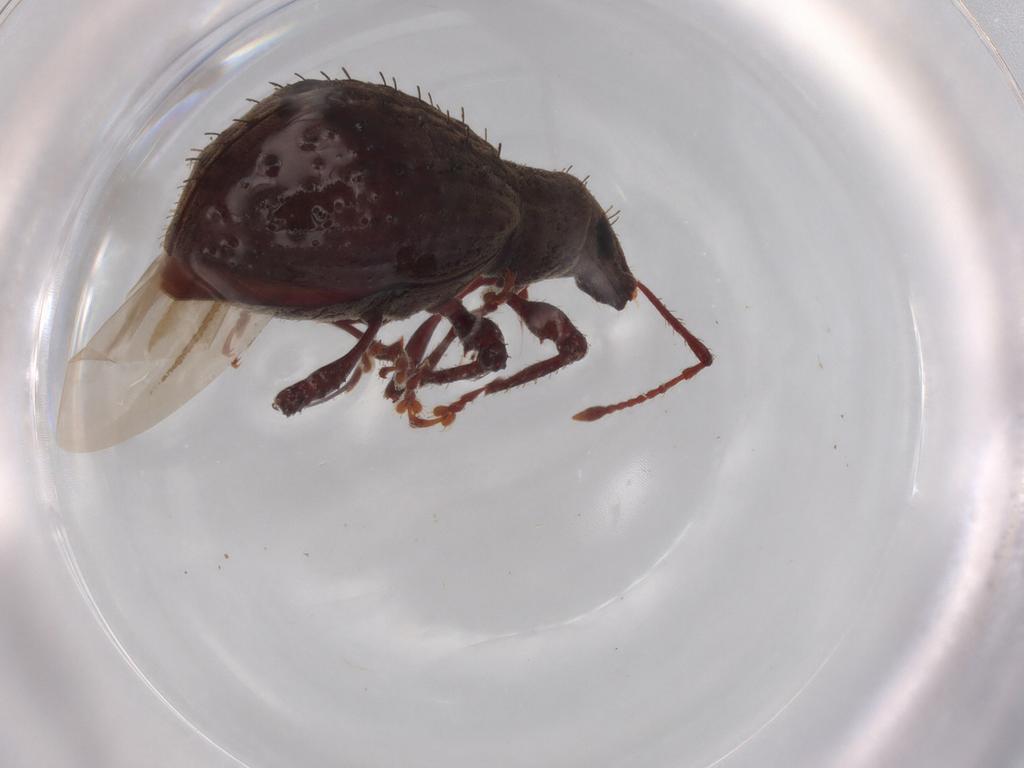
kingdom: Animalia
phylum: Arthropoda
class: Insecta
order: Coleoptera
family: Curculionidae
